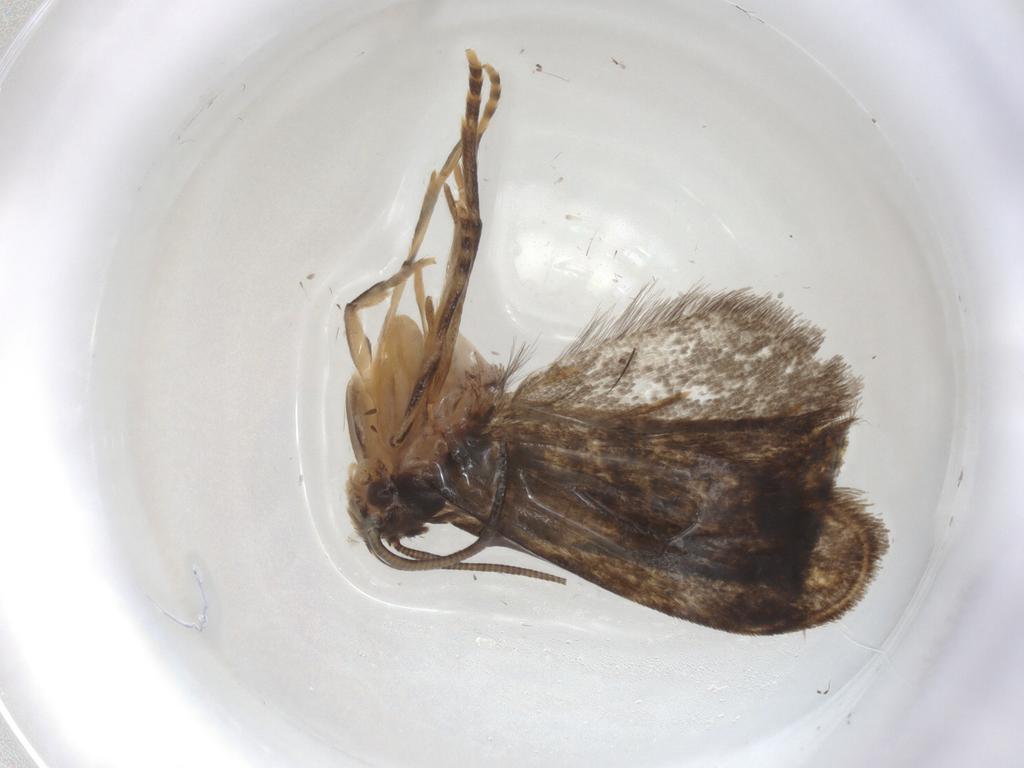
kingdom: Animalia
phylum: Arthropoda
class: Insecta
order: Lepidoptera
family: Dryadaulidae
